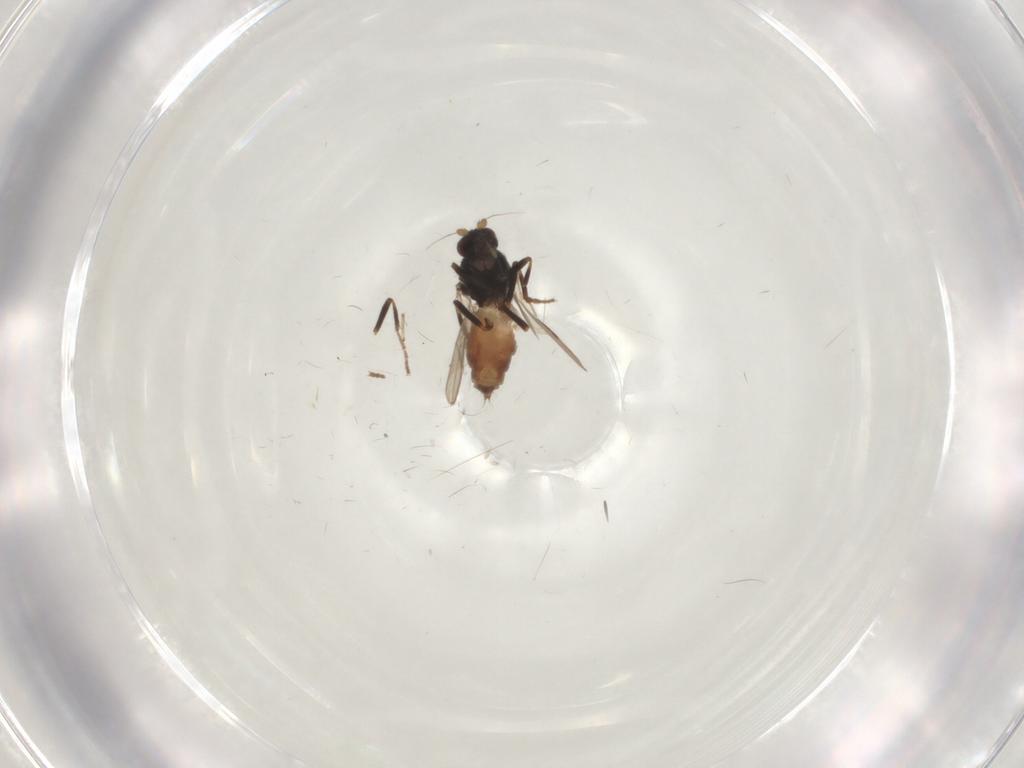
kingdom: Animalia
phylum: Arthropoda
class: Insecta
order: Diptera
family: Sphaeroceridae
